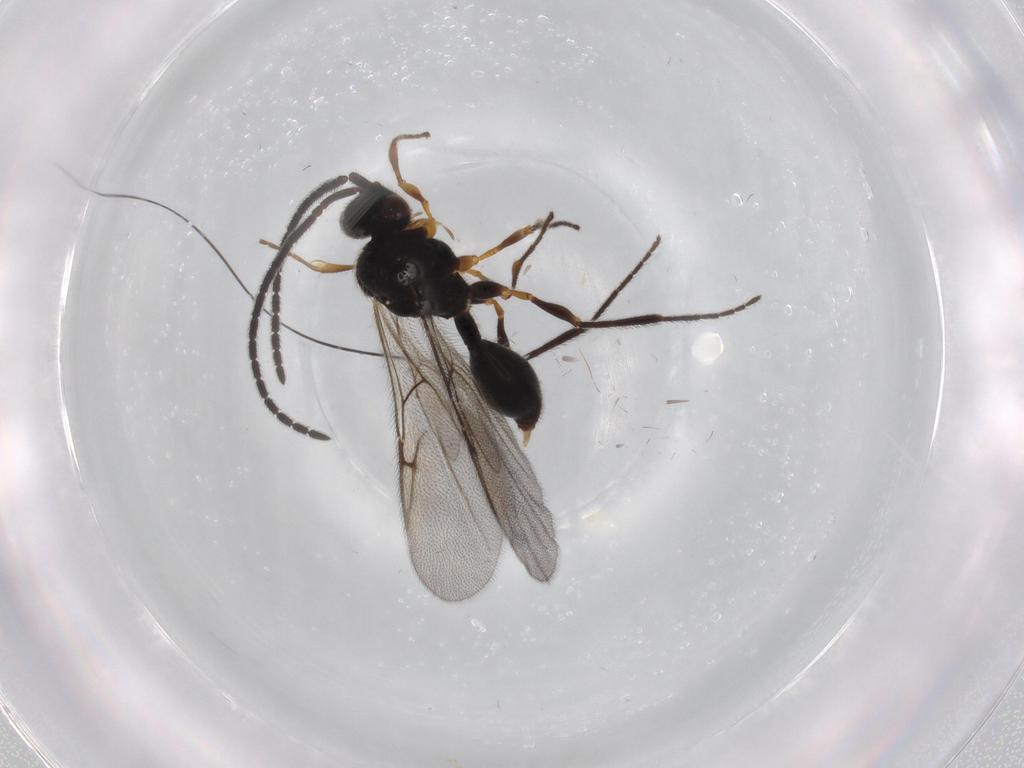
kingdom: Animalia
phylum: Arthropoda
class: Insecta
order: Hymenoptera
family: Diapriidae
